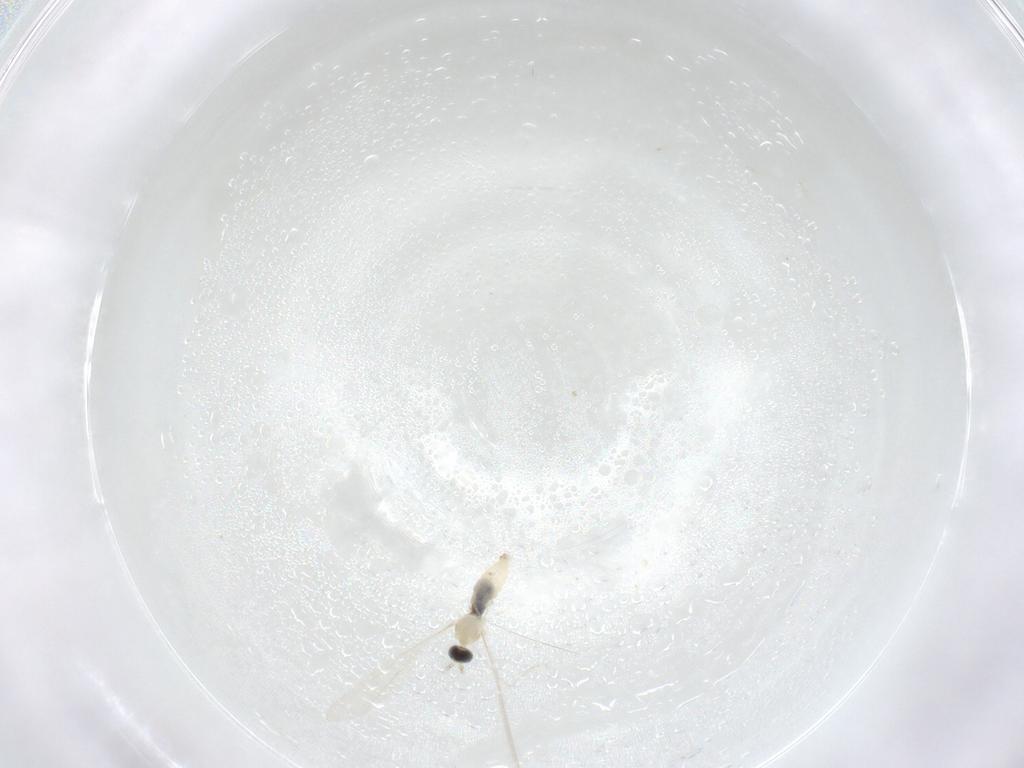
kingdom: Animalia
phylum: Arthropoda
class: Insecta
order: Diptera
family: Cecidomyiidae
